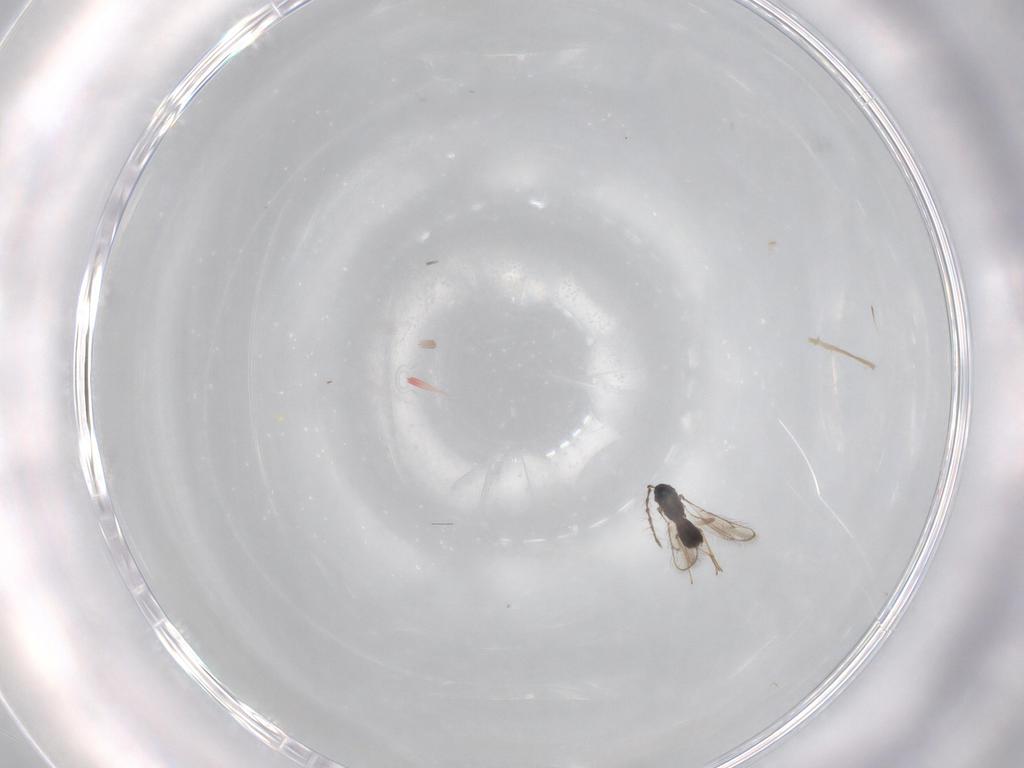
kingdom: Animalia
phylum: Arthropoda
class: Insecta
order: Hymenoptera
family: Pteromalidae
